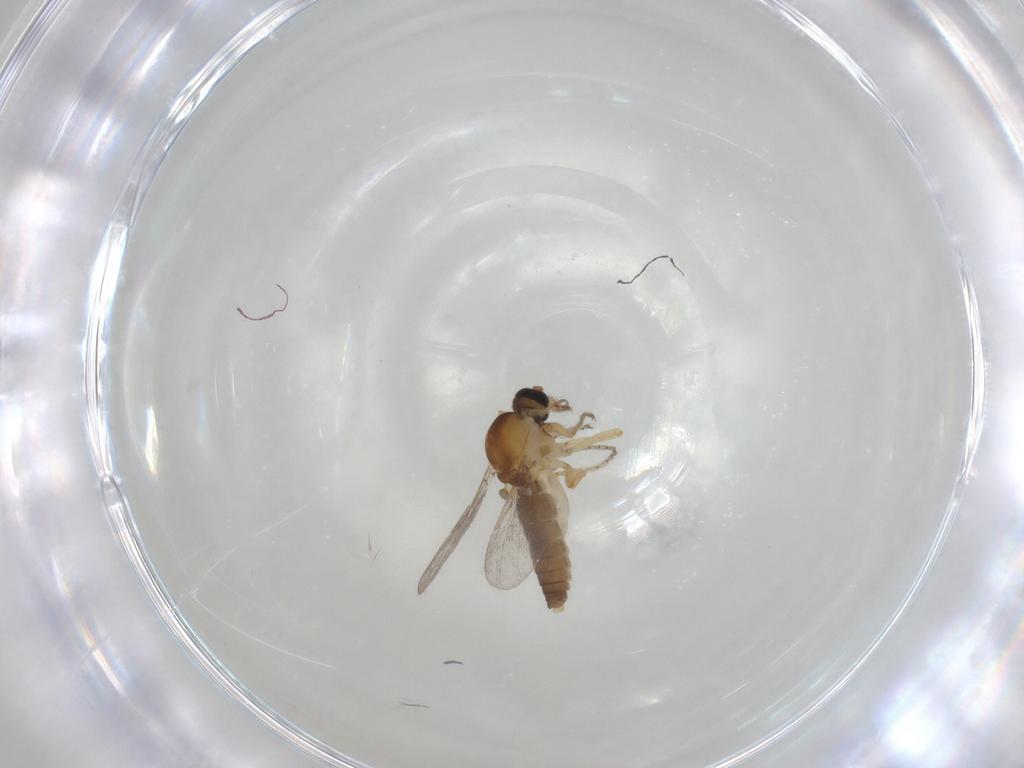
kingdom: Animalia
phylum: Arthropoda
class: Insecta
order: Diptera
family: Ceratopogonidae
